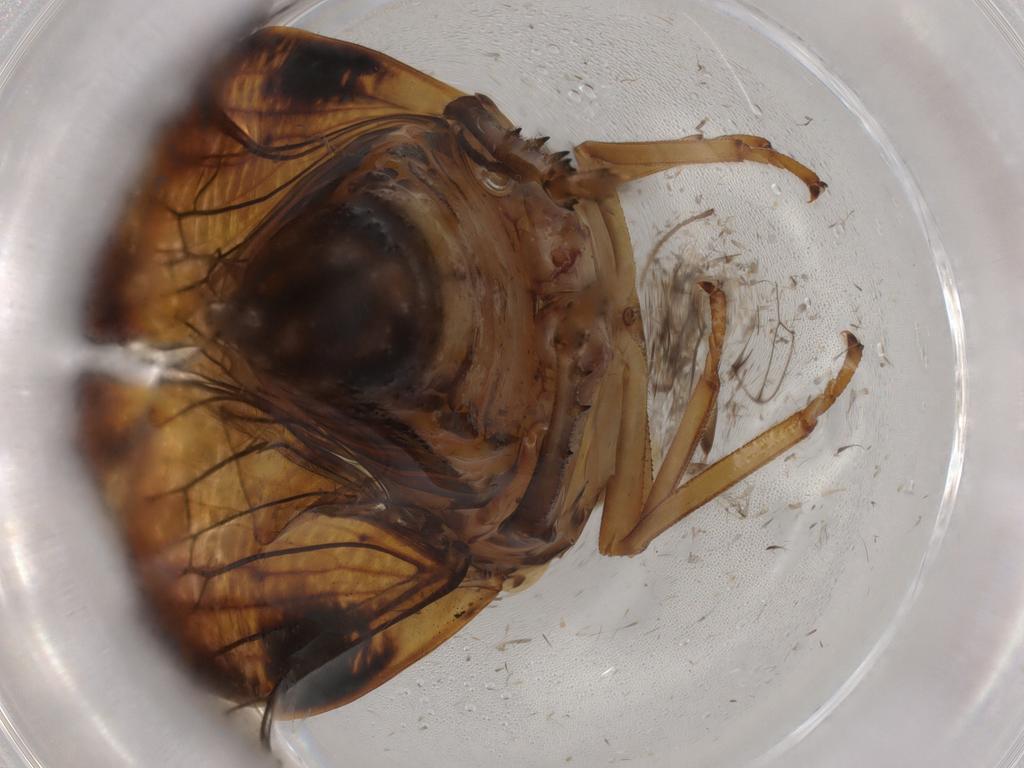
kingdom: Animalia
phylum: Arthropoda
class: Insecta
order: Hemiptera
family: Issidae
